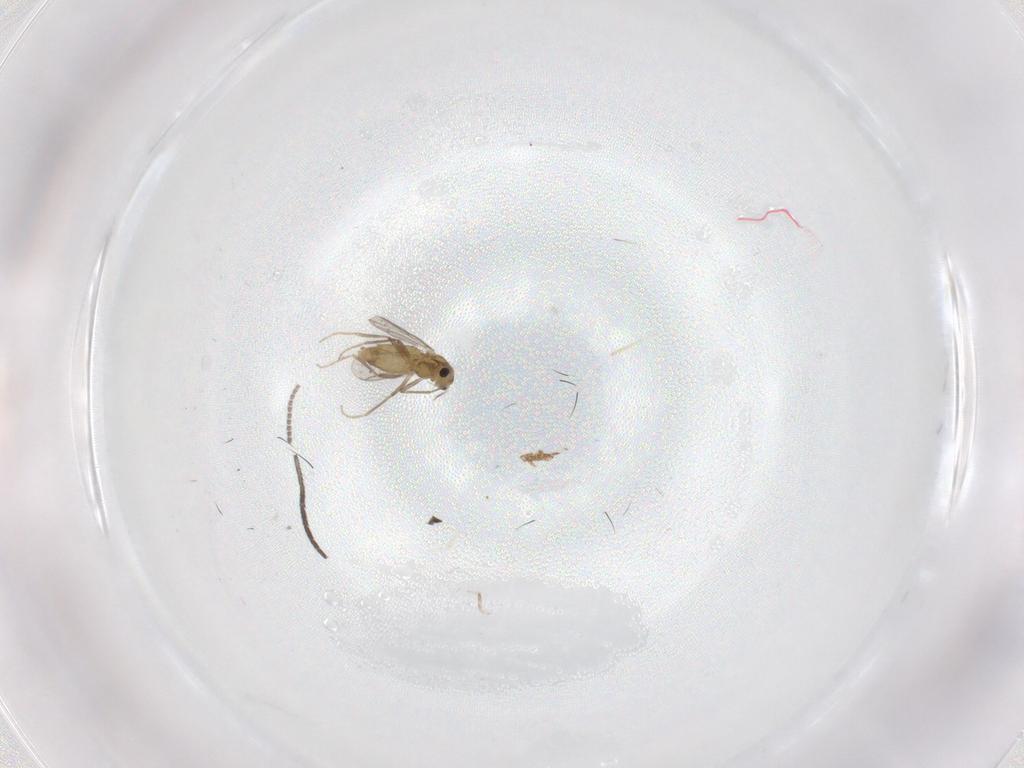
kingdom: Animalia
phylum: Arthropoda
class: Insecta
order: Diptera
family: Chironomidae
